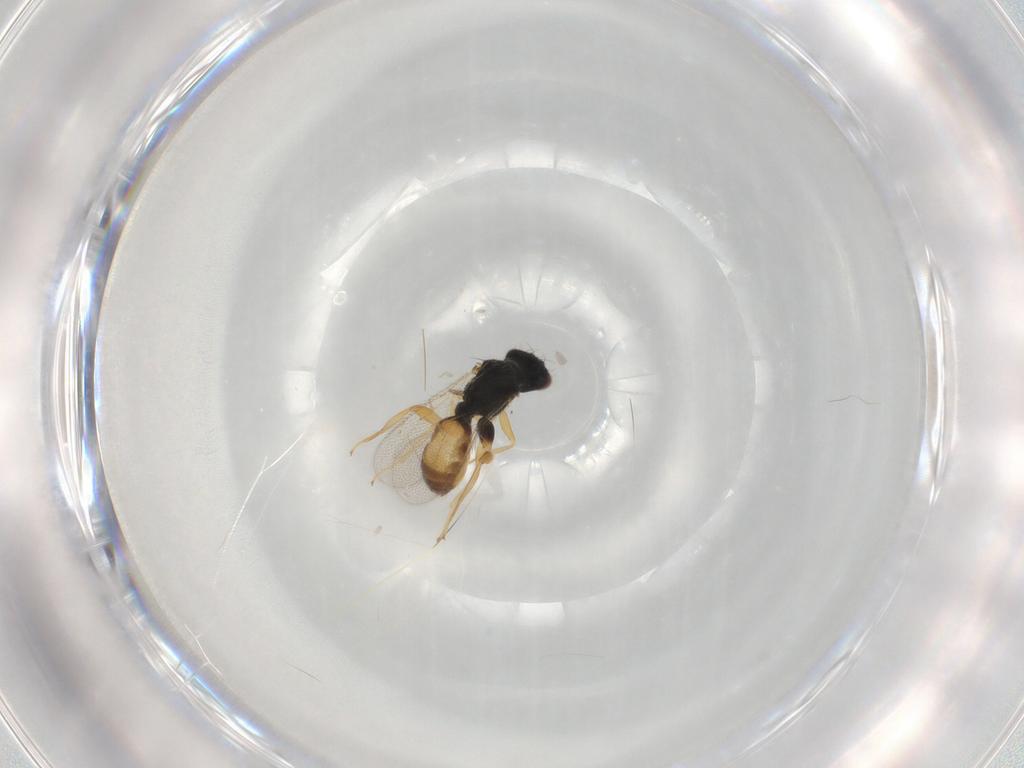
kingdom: Animalia
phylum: Arthropoda
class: Insecta
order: Hymenoptera
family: Eulophidae
